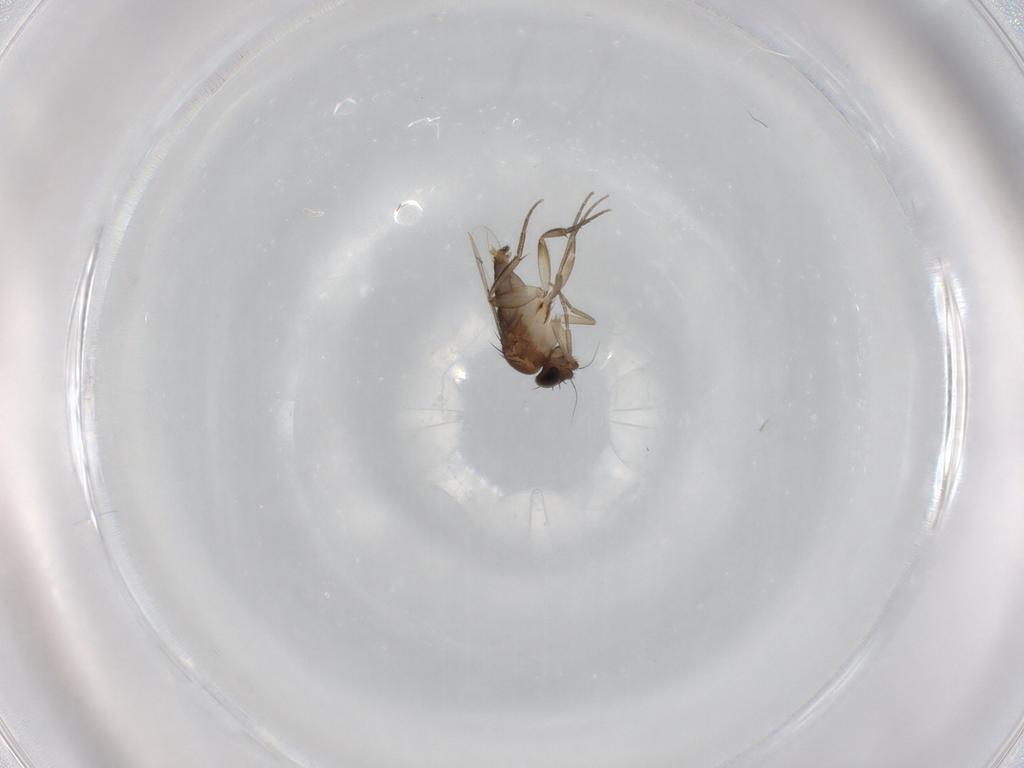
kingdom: Animalia
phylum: Arthropoda
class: Insecta
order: Diptera
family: Phoridae
